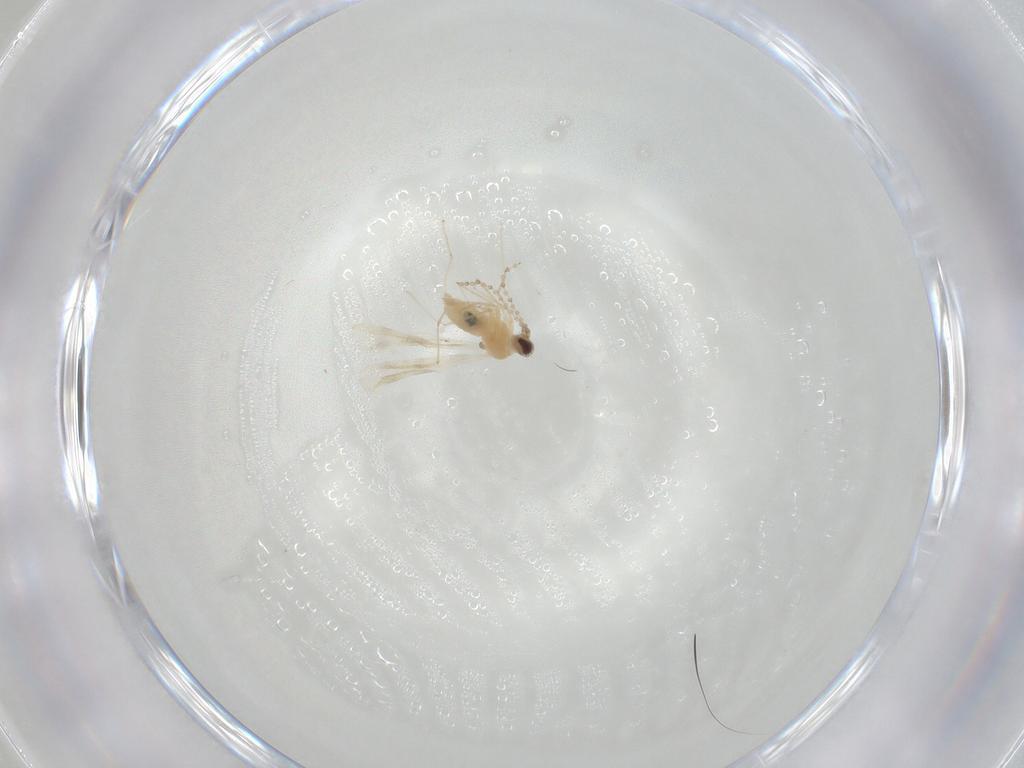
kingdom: Animalia
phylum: Arthropoda
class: Insecta
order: Diptera
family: Cecidomyiidae
